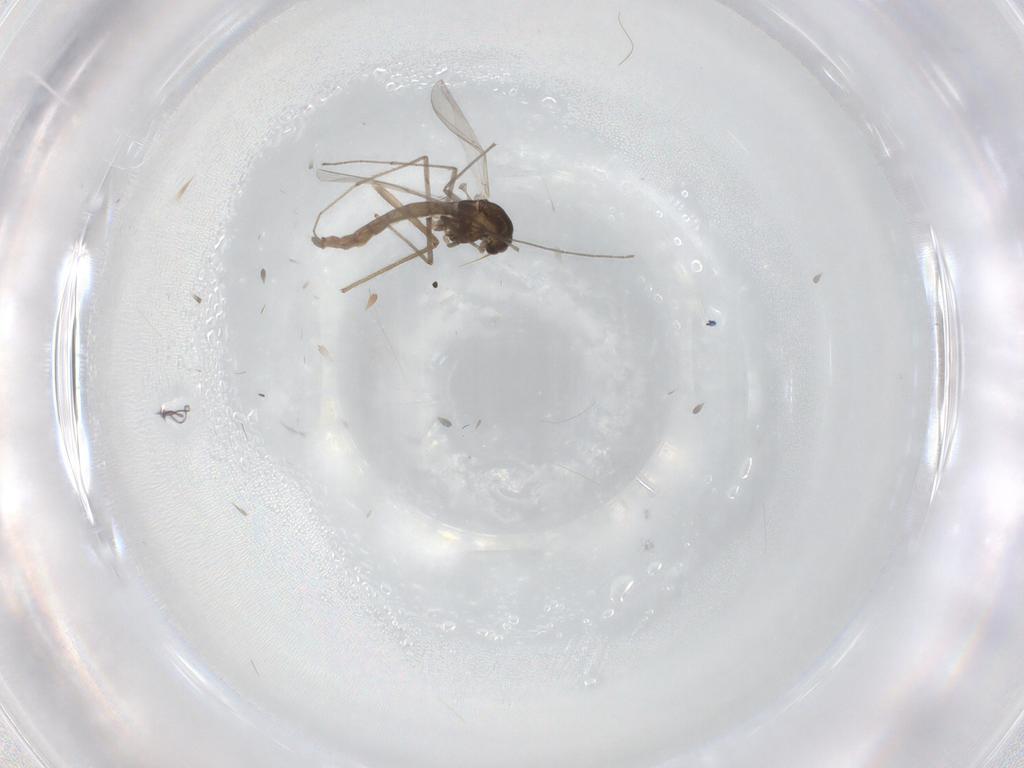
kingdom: Animalia
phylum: Arthropoda
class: Insecta
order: Diptera
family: Chironomidae
